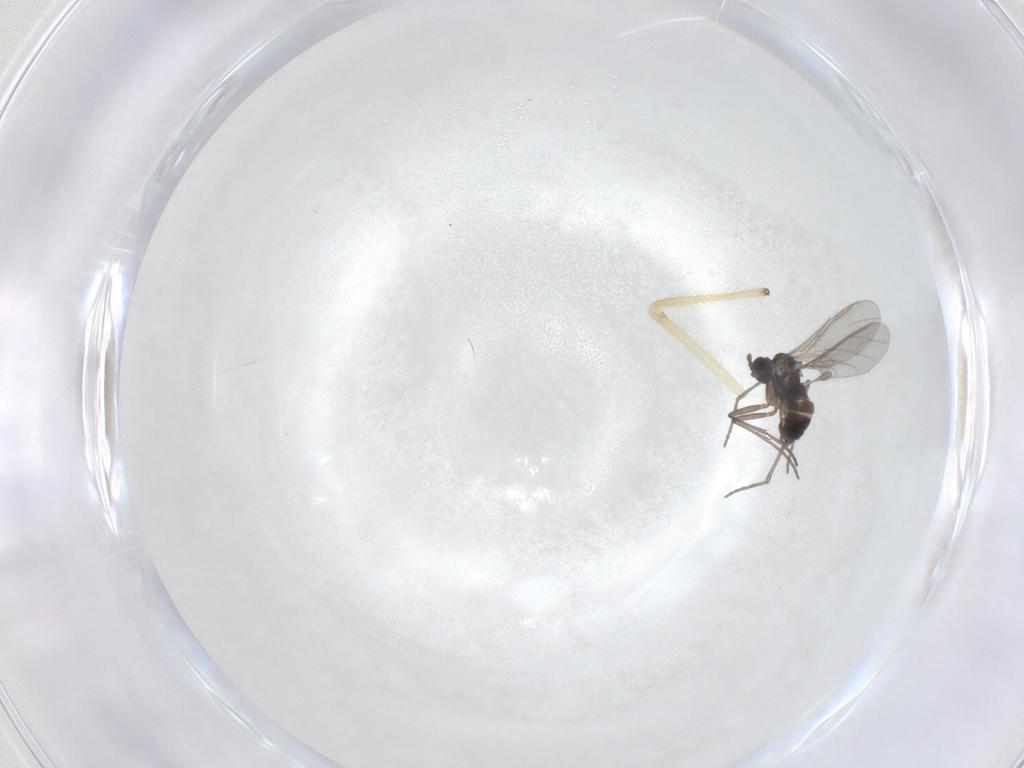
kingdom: Animalia
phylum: Arthropoda
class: Insecta
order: Diptera
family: Sciaridae
